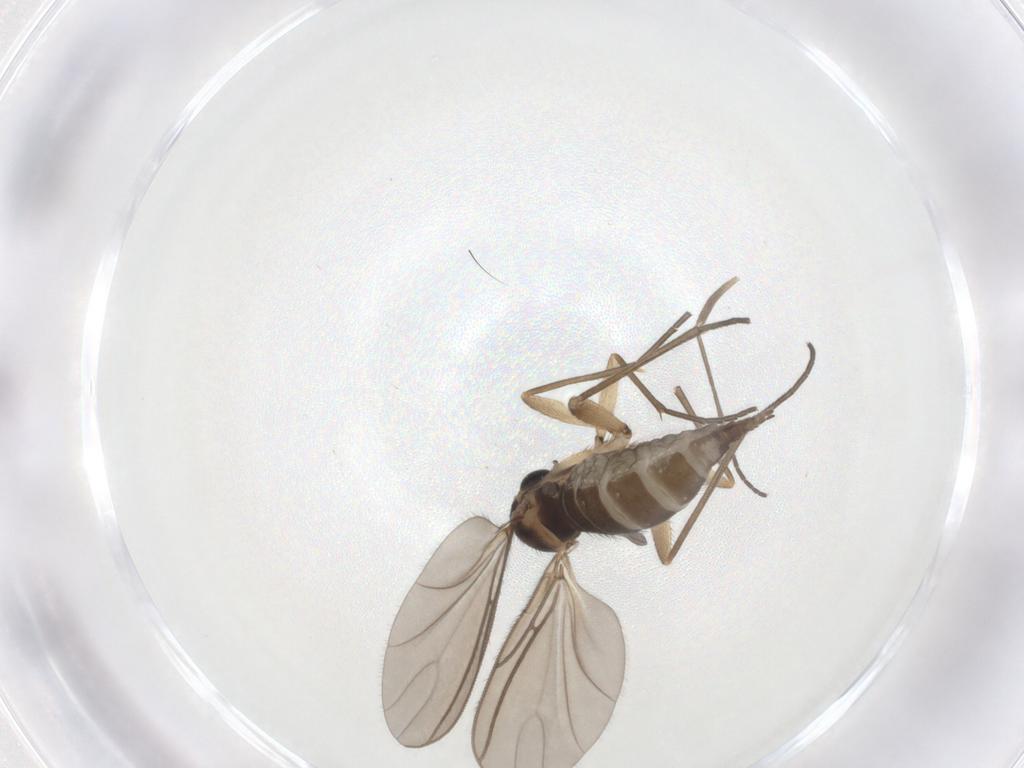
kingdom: Animalia
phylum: Arthropoda
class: Insecta
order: Diptera
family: Sciaridae
